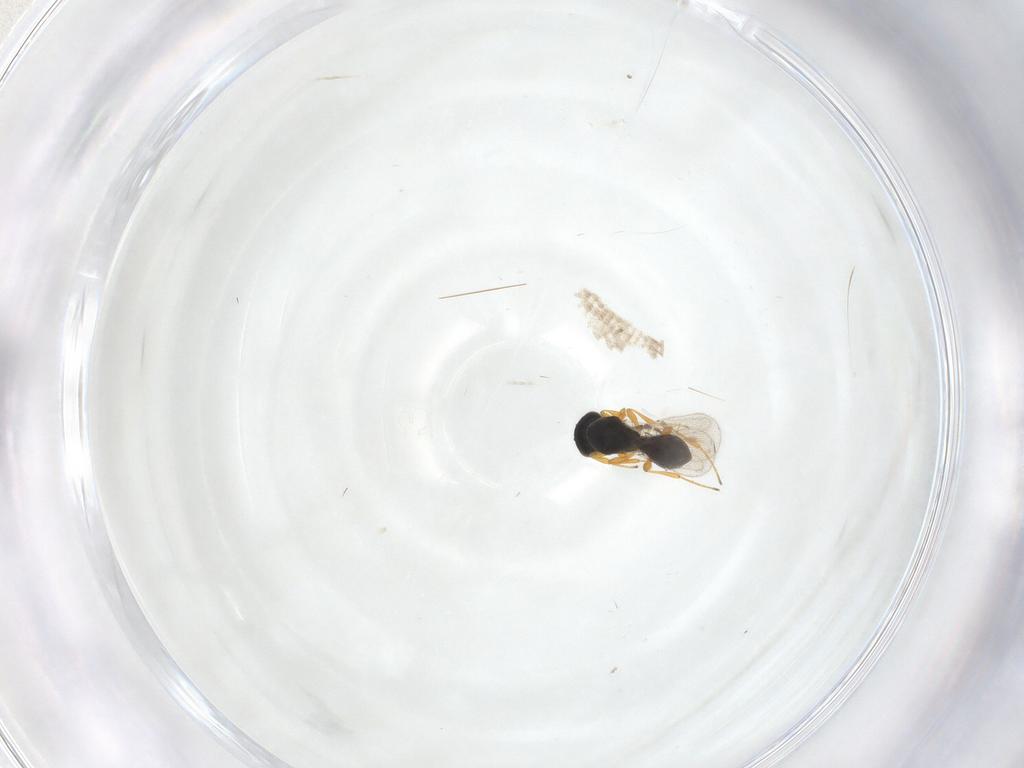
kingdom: Animalia
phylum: Arthropoda
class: Insecta
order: Hymenoptera
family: Platygastridae
